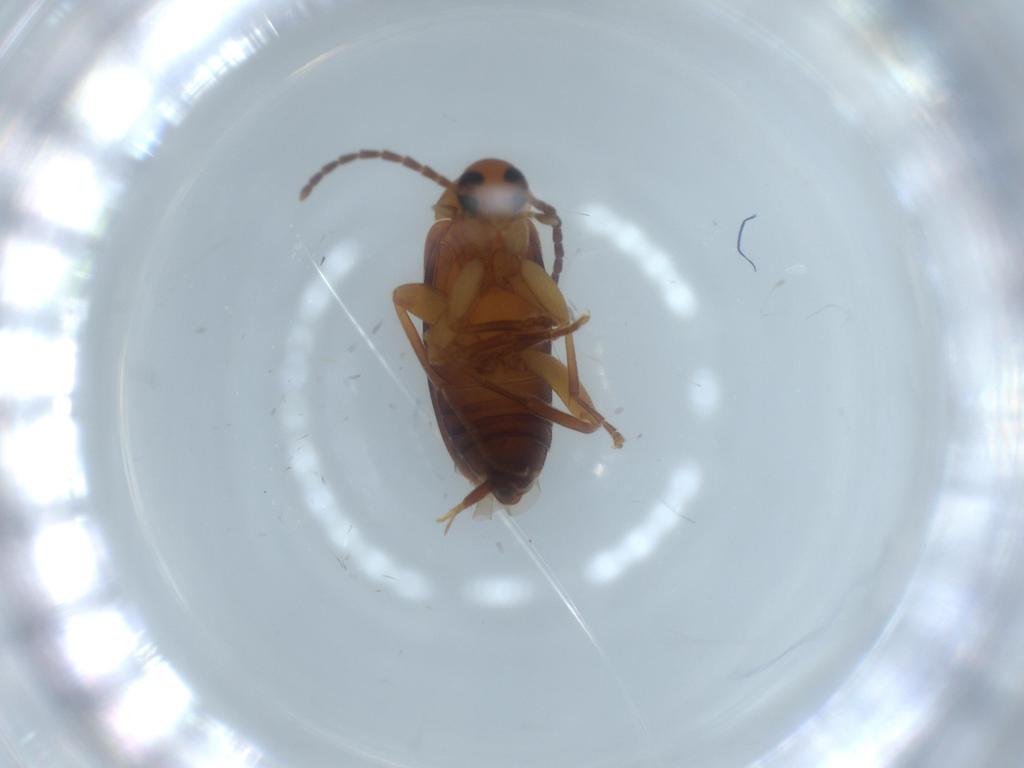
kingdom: Animalia
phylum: Arthropoda
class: Insecta
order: Coleoptera
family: Scraptiidae
